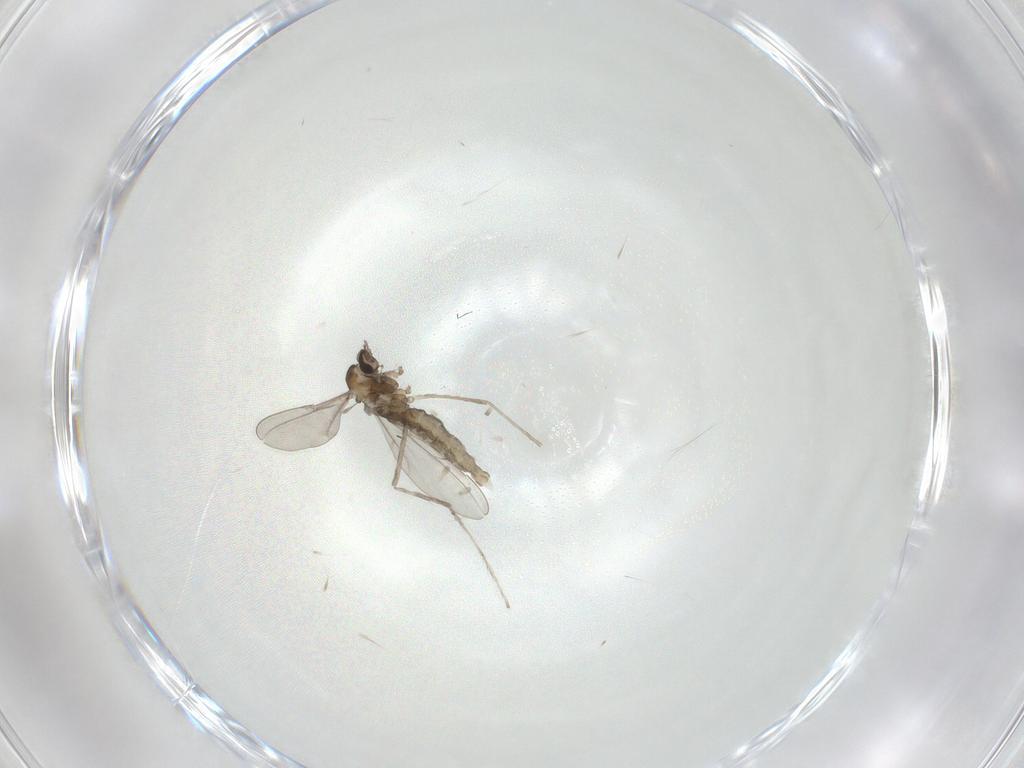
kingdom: Animalia
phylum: Arthropoda
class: Insecta
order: Diptera
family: Cecidomyiidae
